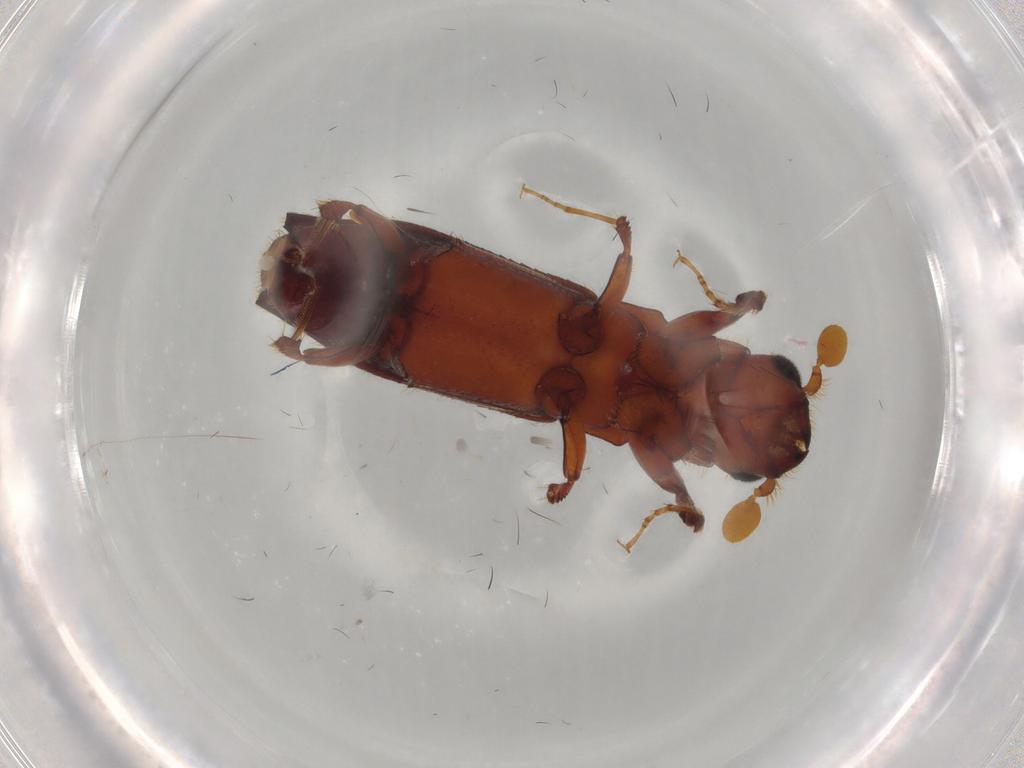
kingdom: Animalia
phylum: Arthropoda
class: Insecta
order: Coleoptera
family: Curculionidae
